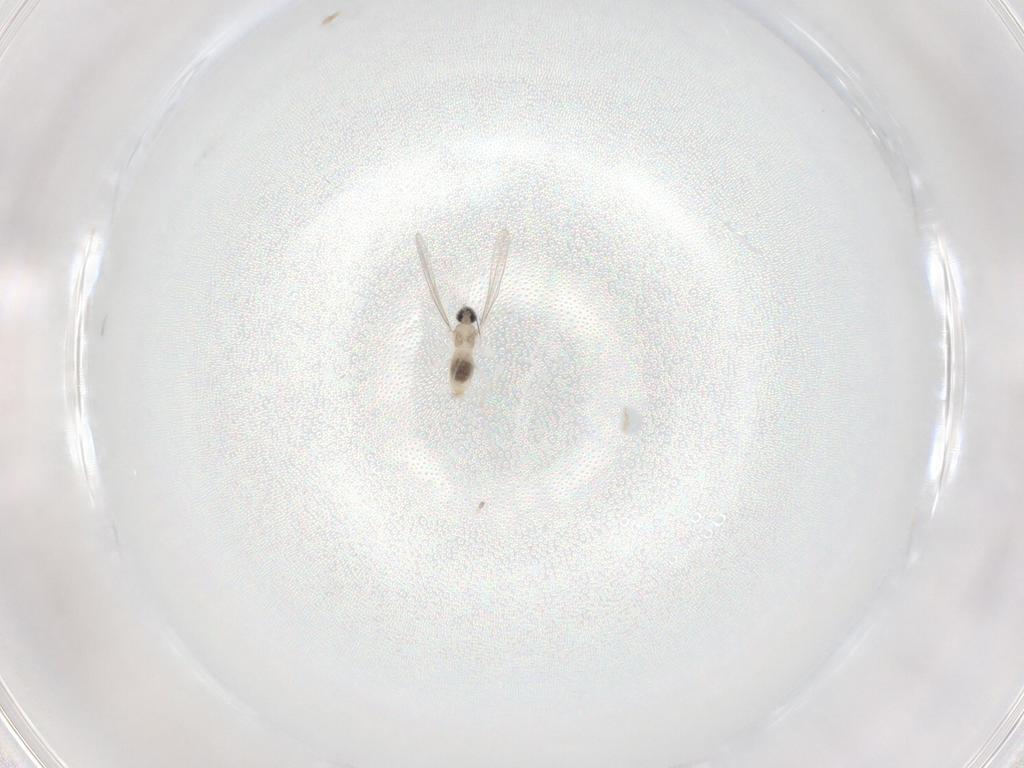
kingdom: Animalia
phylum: Arthropoda
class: Insecta
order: Diptera
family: Cecidomyiidae
